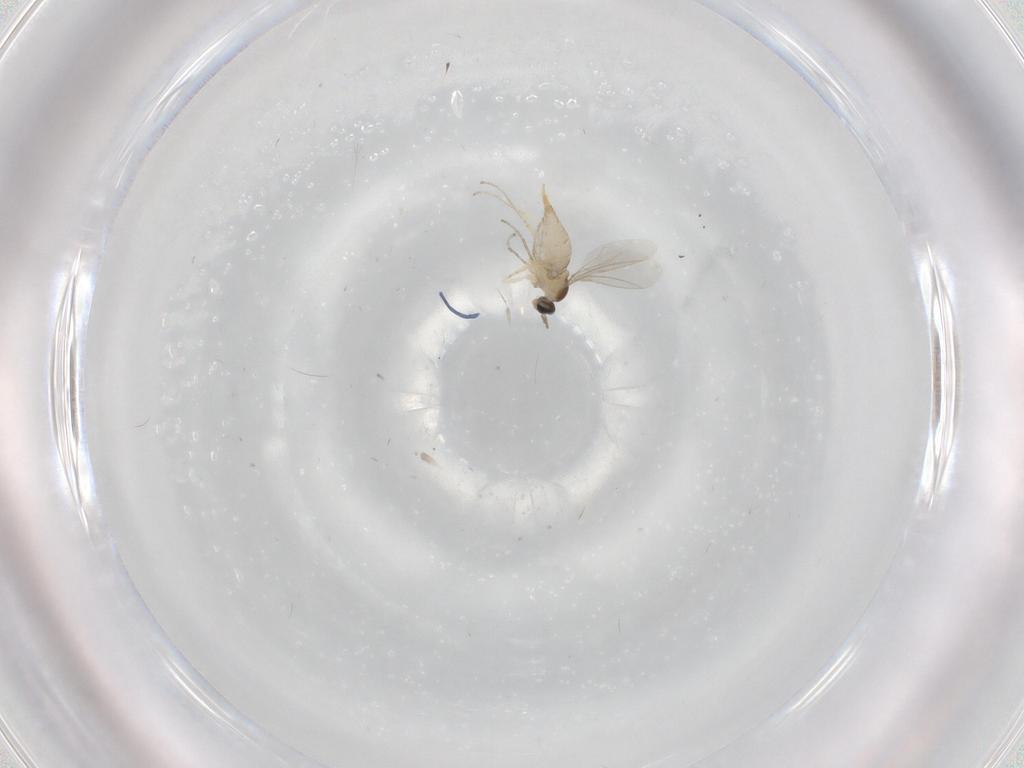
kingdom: Animalia
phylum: Arthropoda
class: Insecta
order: Diptera
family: Cecidomyiidae
